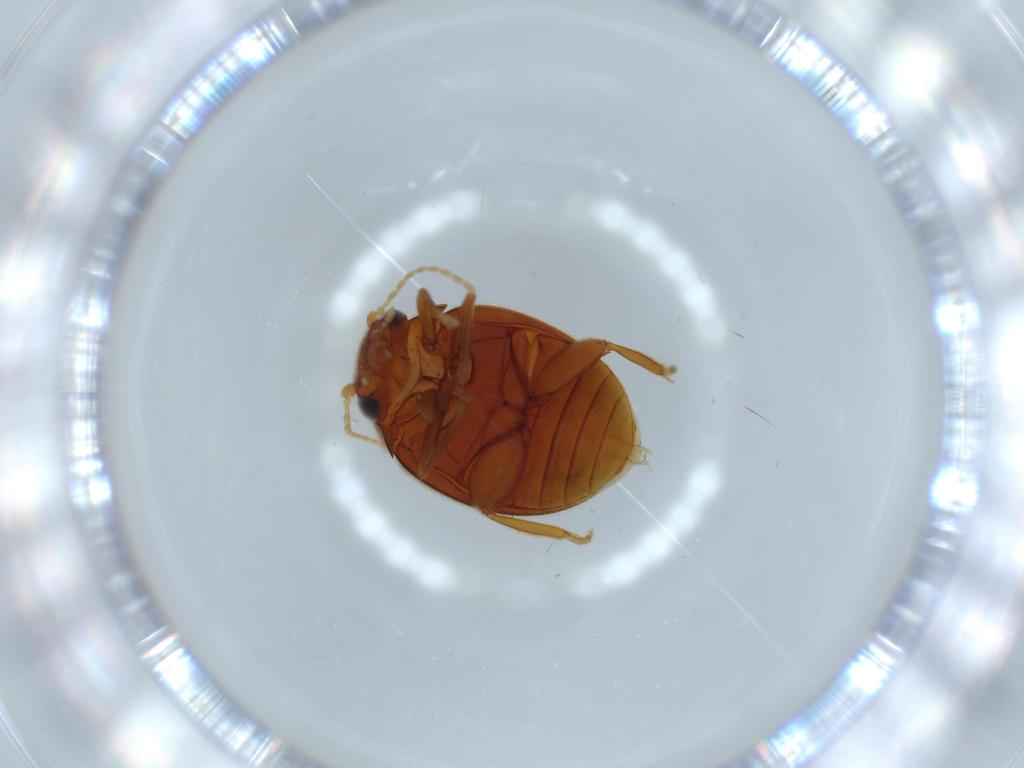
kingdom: Animalia
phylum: Arthropoda
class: Insecta
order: Coleoptera
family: Scirtidae
